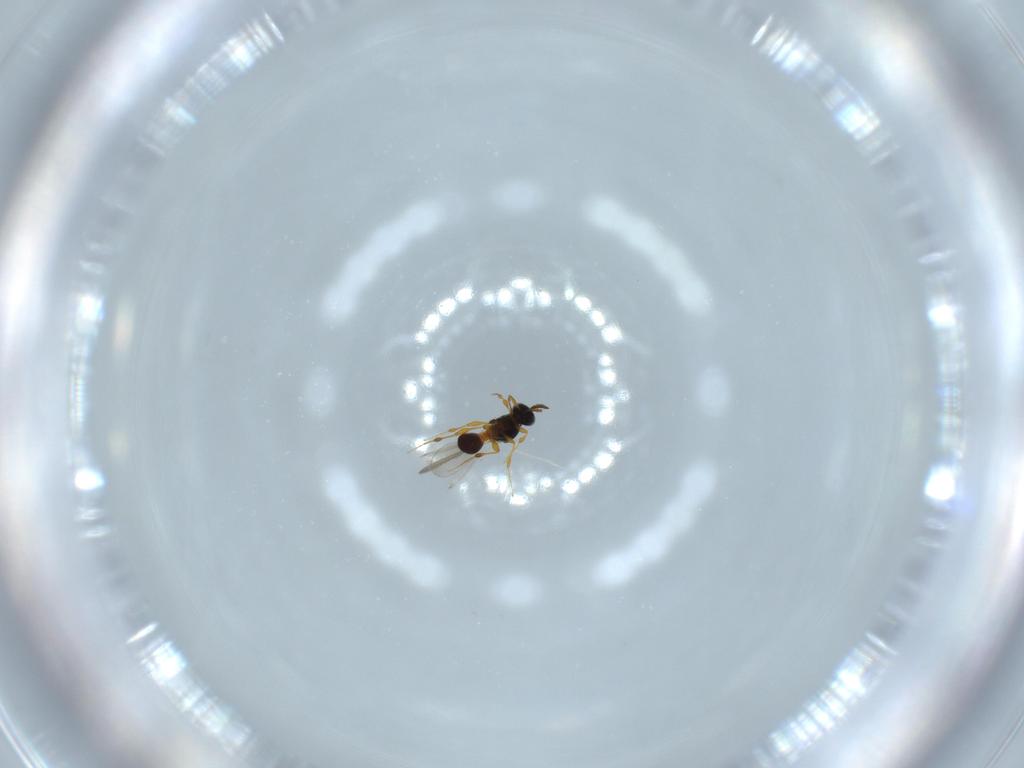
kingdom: Animalia
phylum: Arthropoda
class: Insecta
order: Hymenoptera
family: Platygastridae
